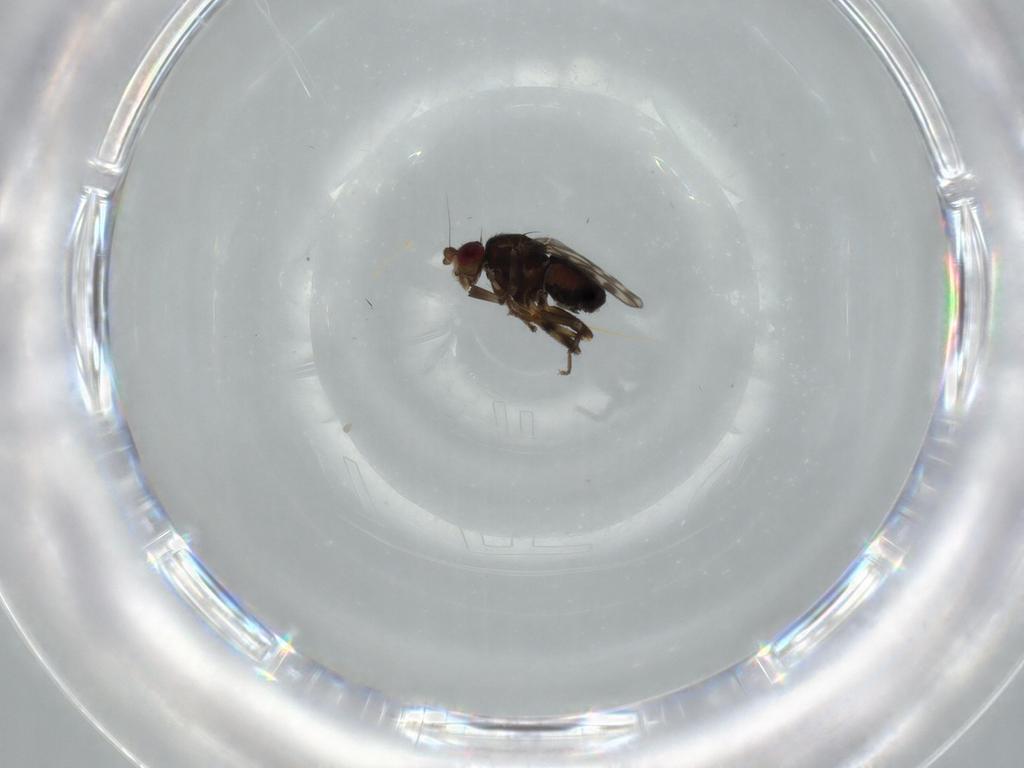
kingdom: Animalia
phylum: Arthropoda
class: Insecta
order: Diptera
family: Sphaeroceridae
